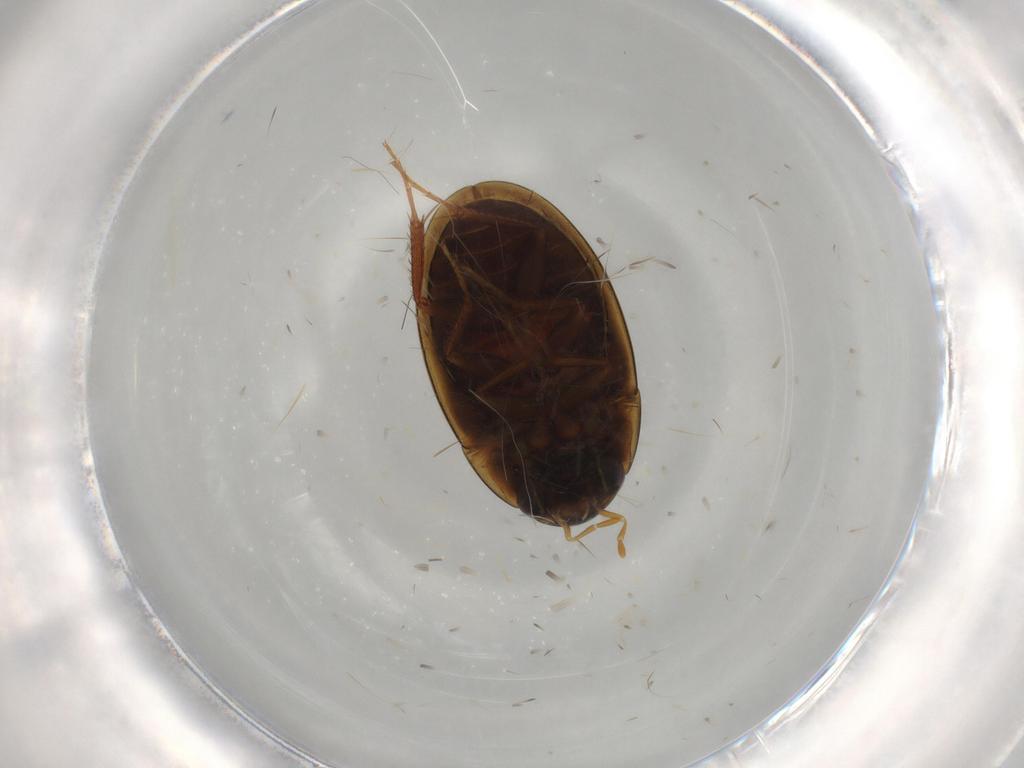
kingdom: Animalia
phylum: Arthropoda
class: Insecta
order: Coleoptera
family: Hydrophilidae
